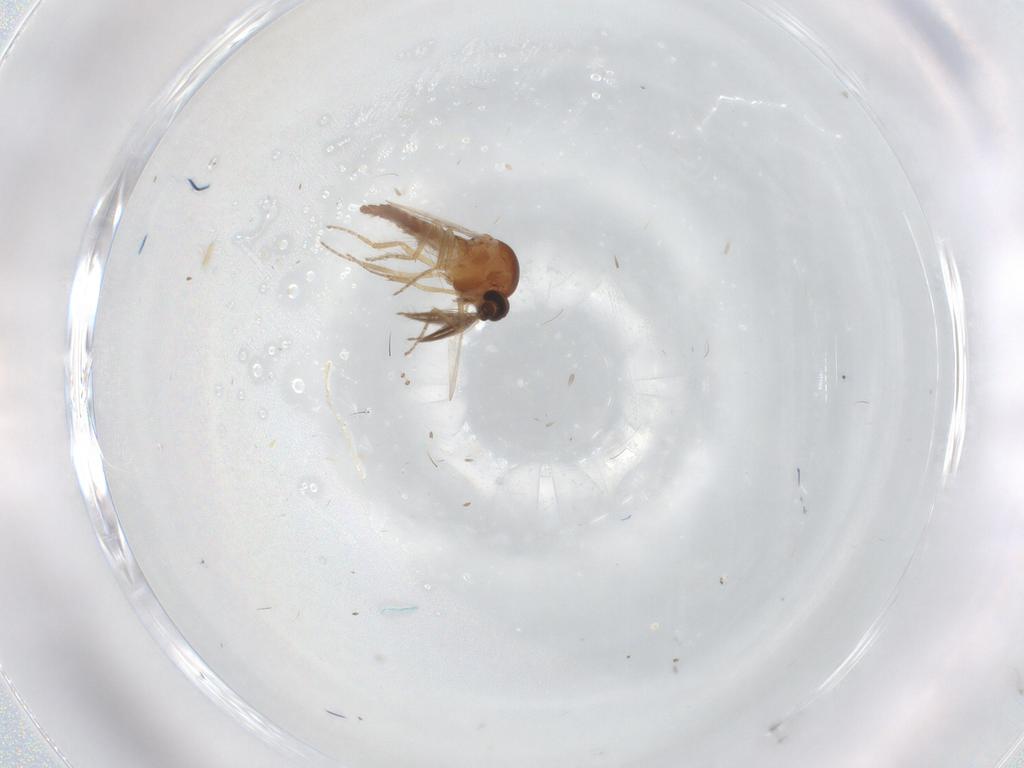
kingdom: Animalia
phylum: Arthropoda
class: Insecta
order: Diptera
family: Ceratopogonidae
